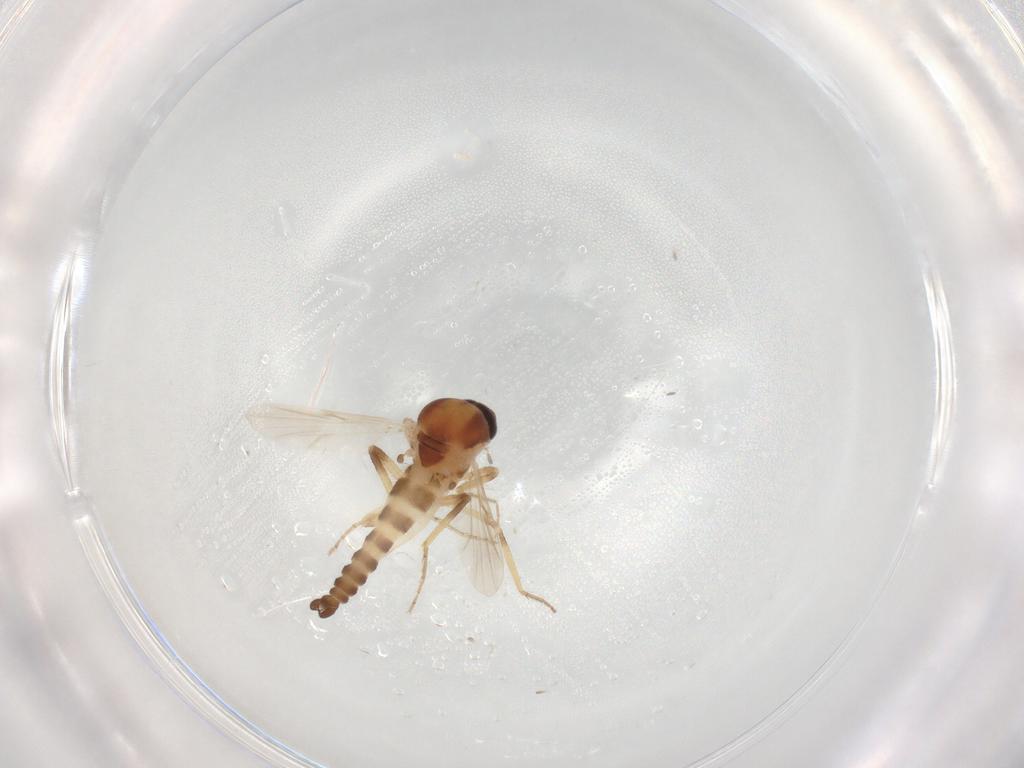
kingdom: Animalia
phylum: Arthropoda
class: Insecta
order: Diptera
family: Ceratopogonidae
